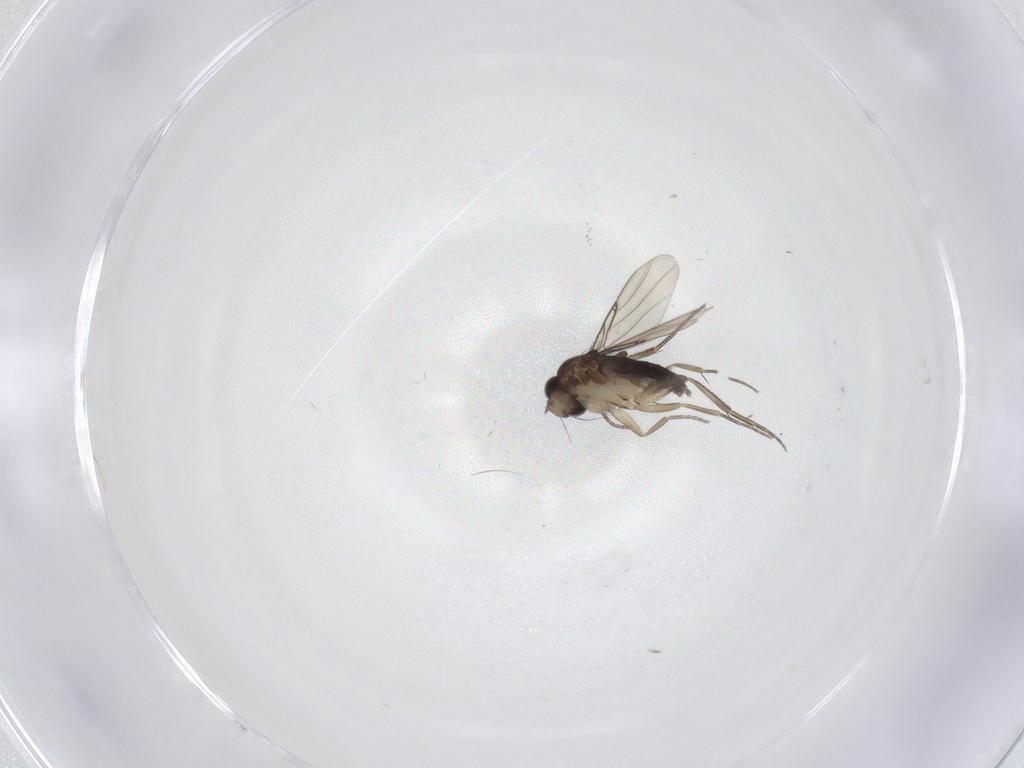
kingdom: Animalia
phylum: Arthropoda
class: Insecta
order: Diptera
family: Phoridae
